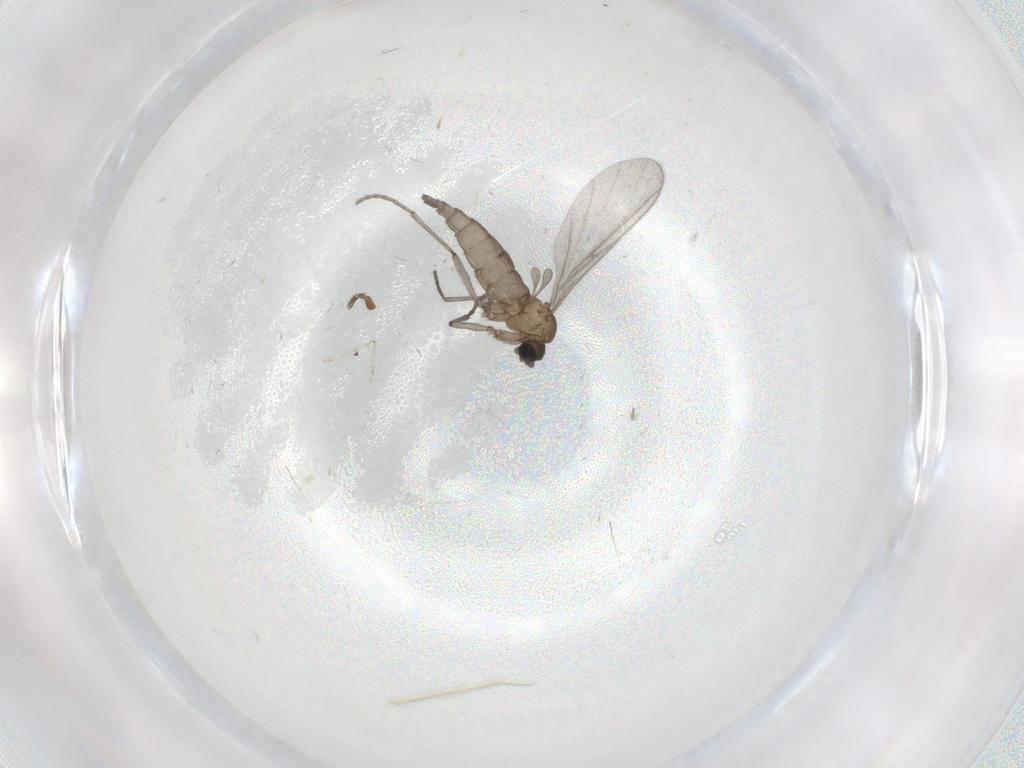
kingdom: Animalia
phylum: Arthropoda
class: Insecta
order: Diptera
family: Sciaridae
